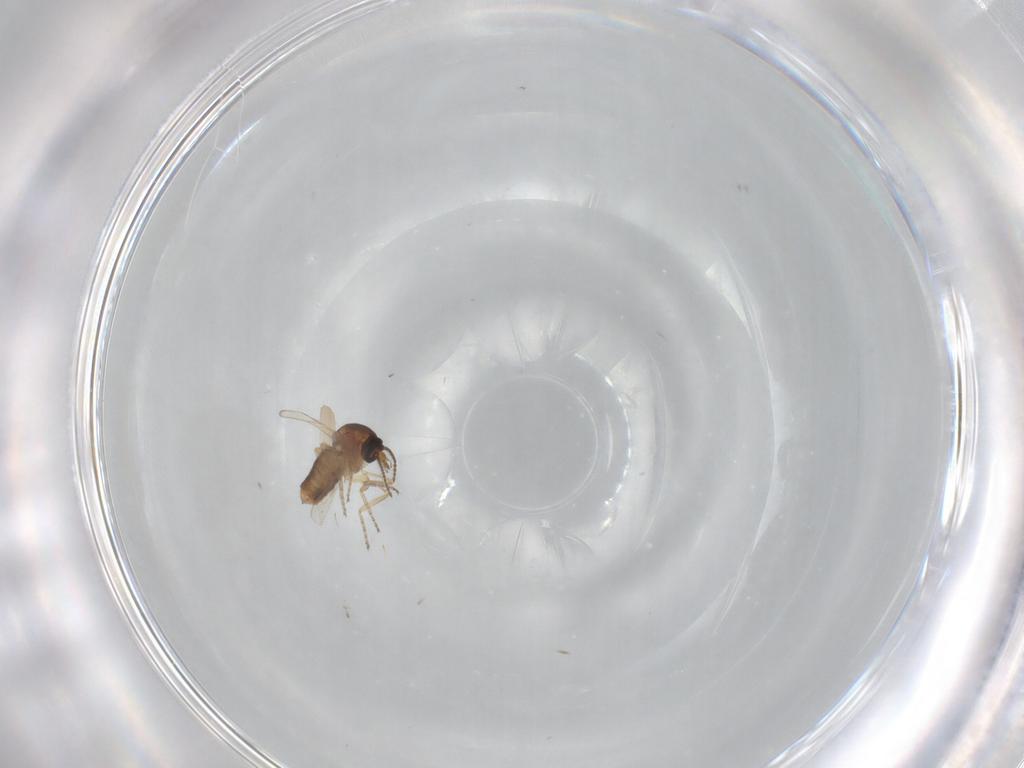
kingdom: Animalia
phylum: Arthropoda
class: Insecta
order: Diptera
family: Ceratopogonidae
